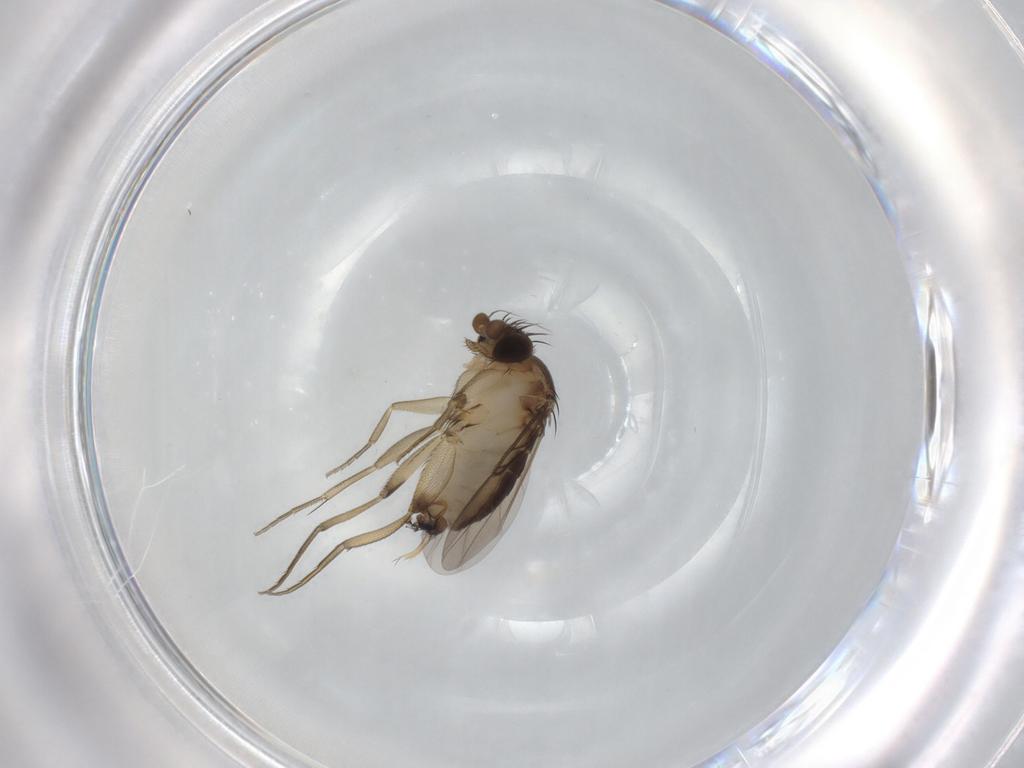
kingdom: Animalia
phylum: Arthropoda
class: Insecta
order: Diptera
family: Phoridae
